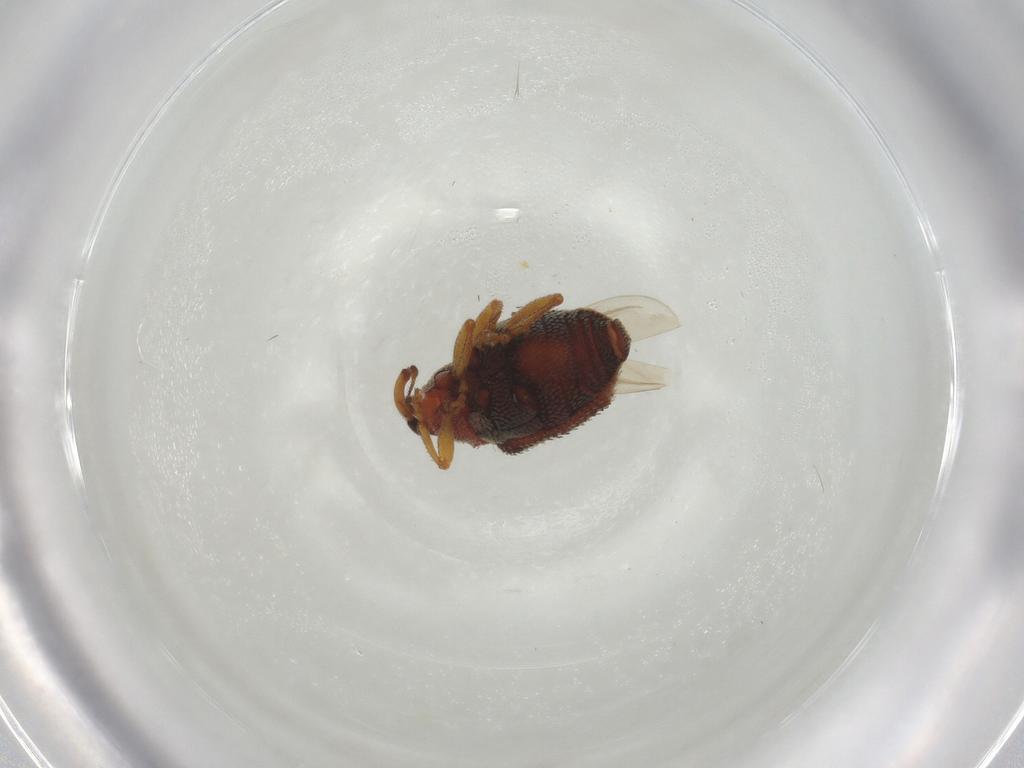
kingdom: Animalia
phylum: Arthropoda
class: Insecta
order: Coleoptera
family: Curculionidae
